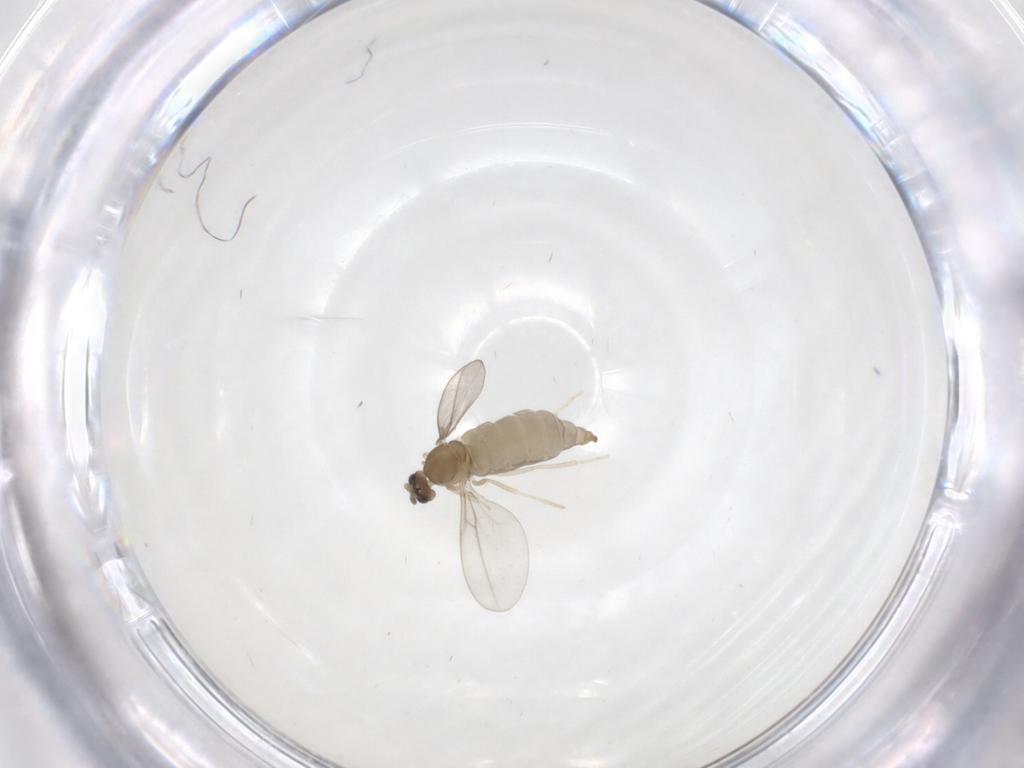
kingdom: Animalia
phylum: Arthropoda
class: Insecta
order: Diptera
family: Cecidomyiidae
